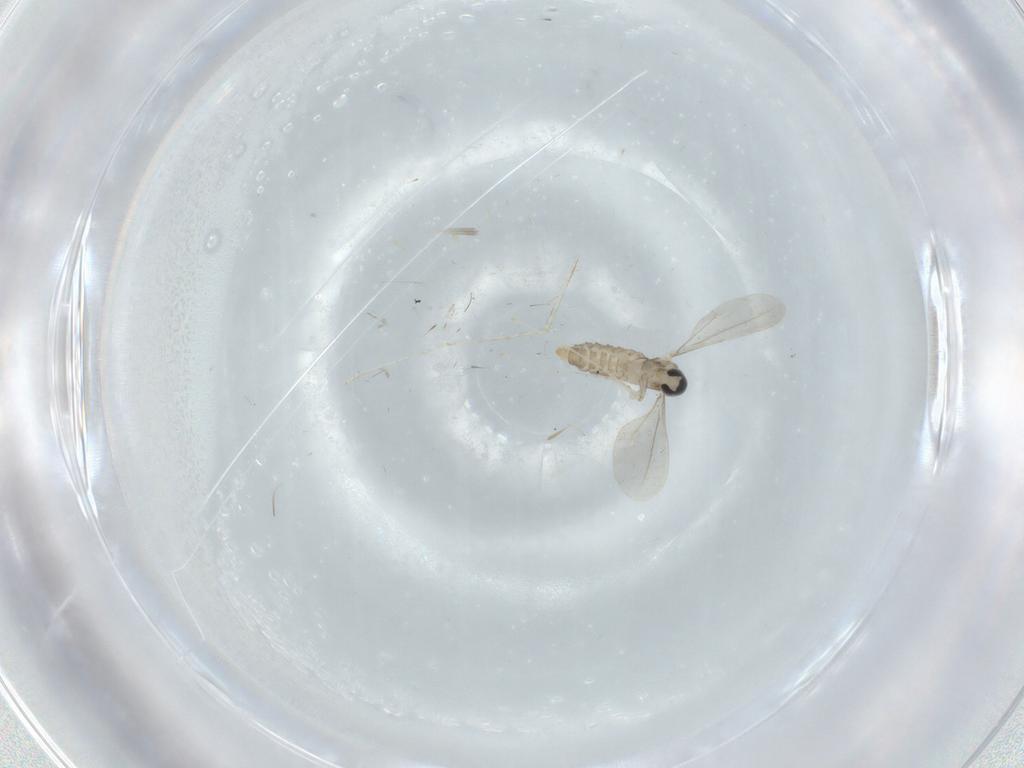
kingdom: Animalia
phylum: Arthropoda
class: Insecta
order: Diptera
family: Cecidomyiidae
